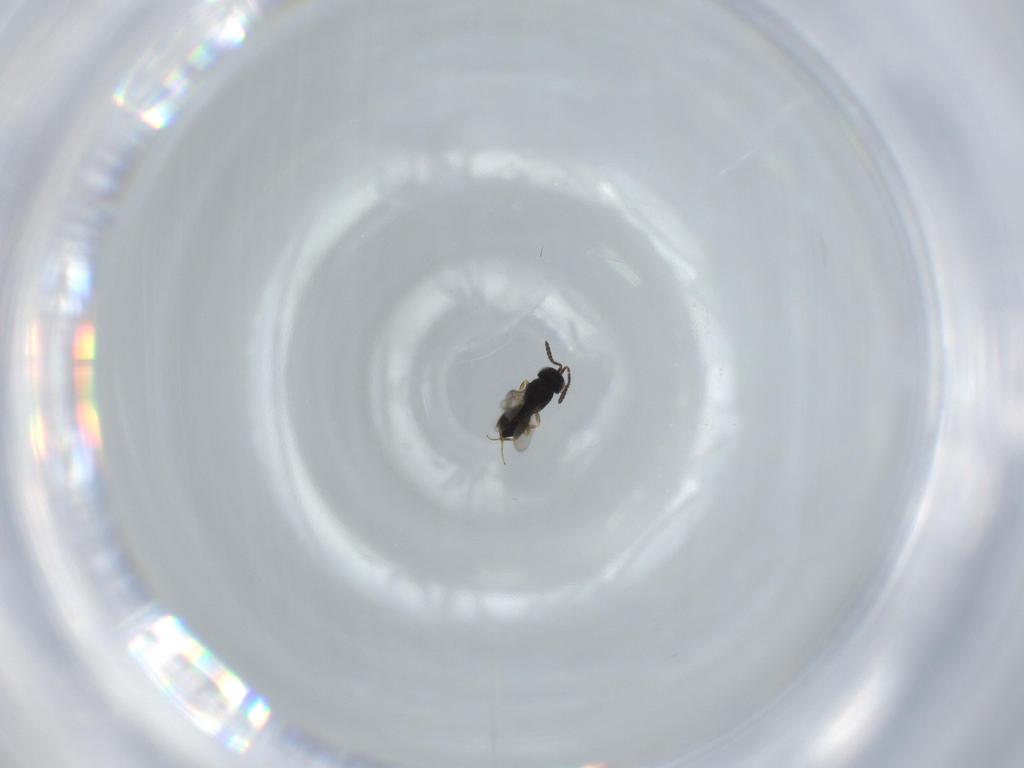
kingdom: Animalia
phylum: Arthropoda
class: Insecta
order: Hymenoptera
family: Scelionidae
